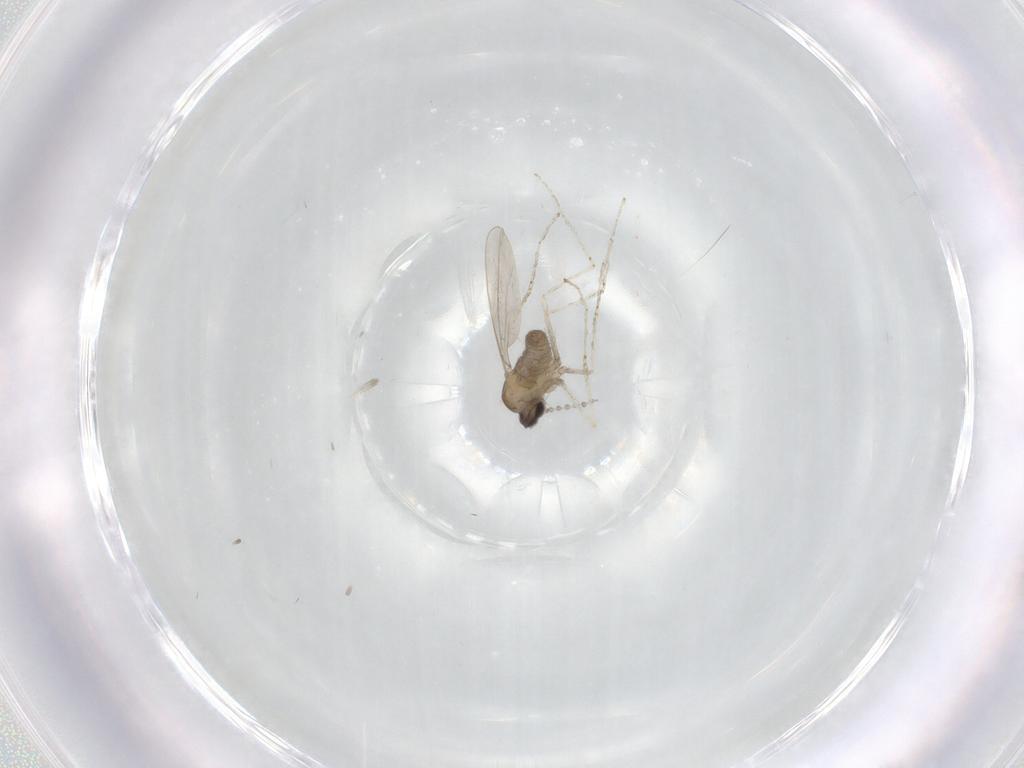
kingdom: Animalia
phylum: Arthropoda
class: Insecta
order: Diptera
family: Cecidomyiidae
